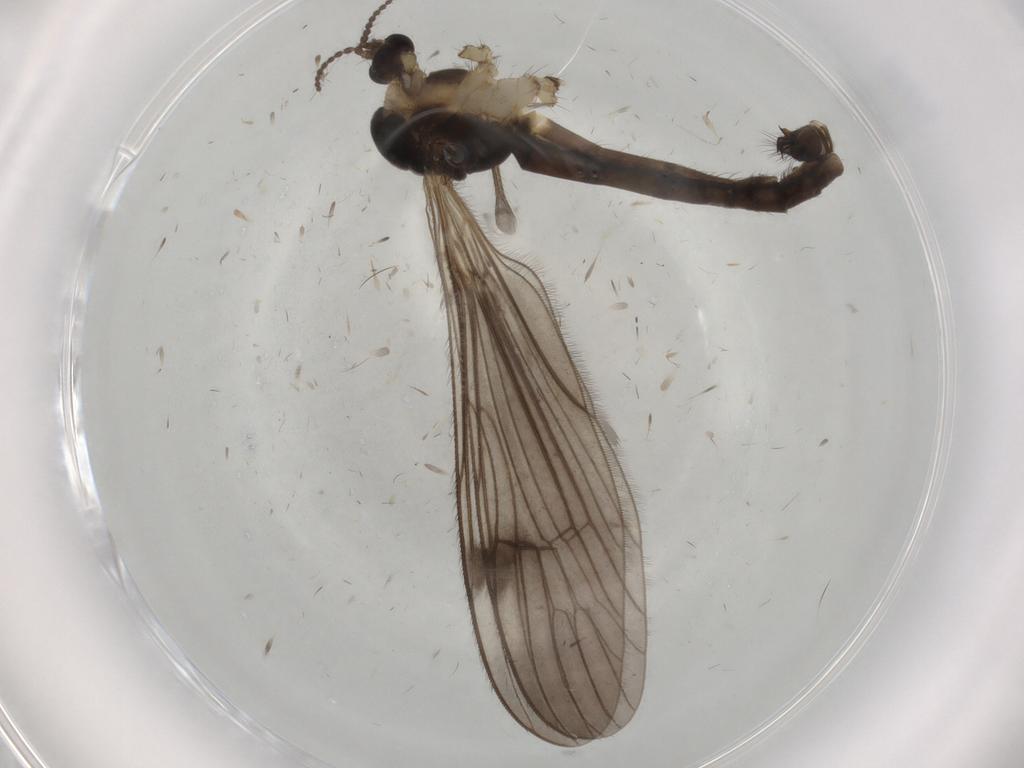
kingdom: Animalia
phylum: Arthropoda
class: Insecta
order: Diptera
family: Limoniidae
